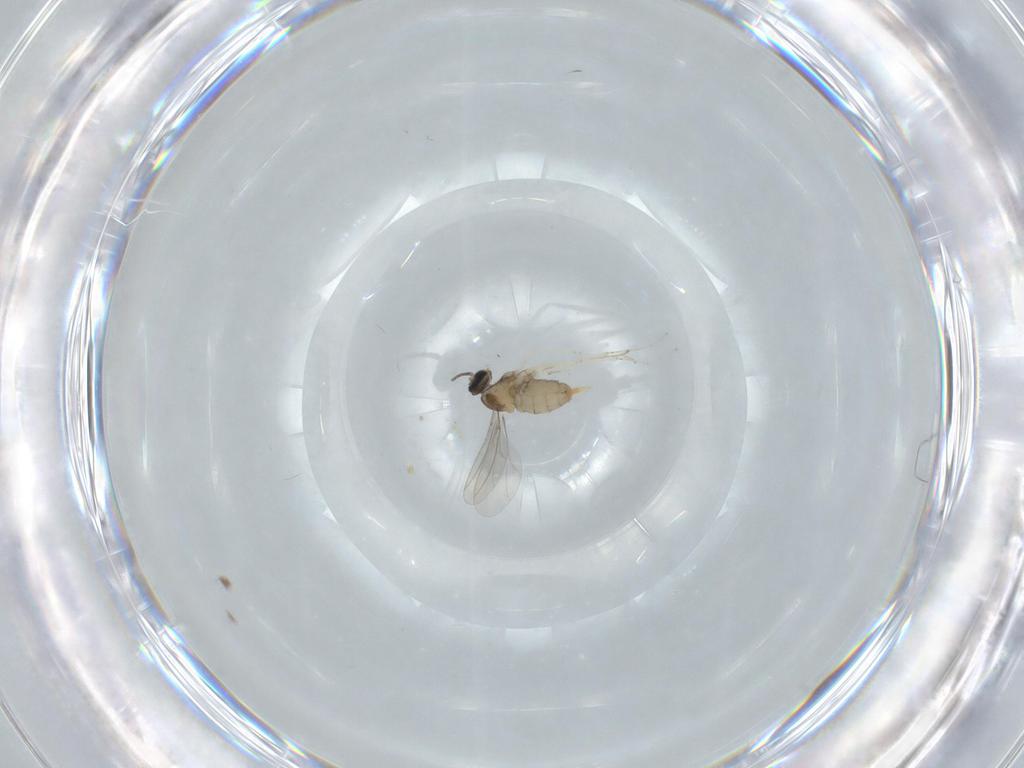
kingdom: Animalia
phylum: Arthropoda
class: Insecta
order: Diptera
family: Cecidomyiidae
